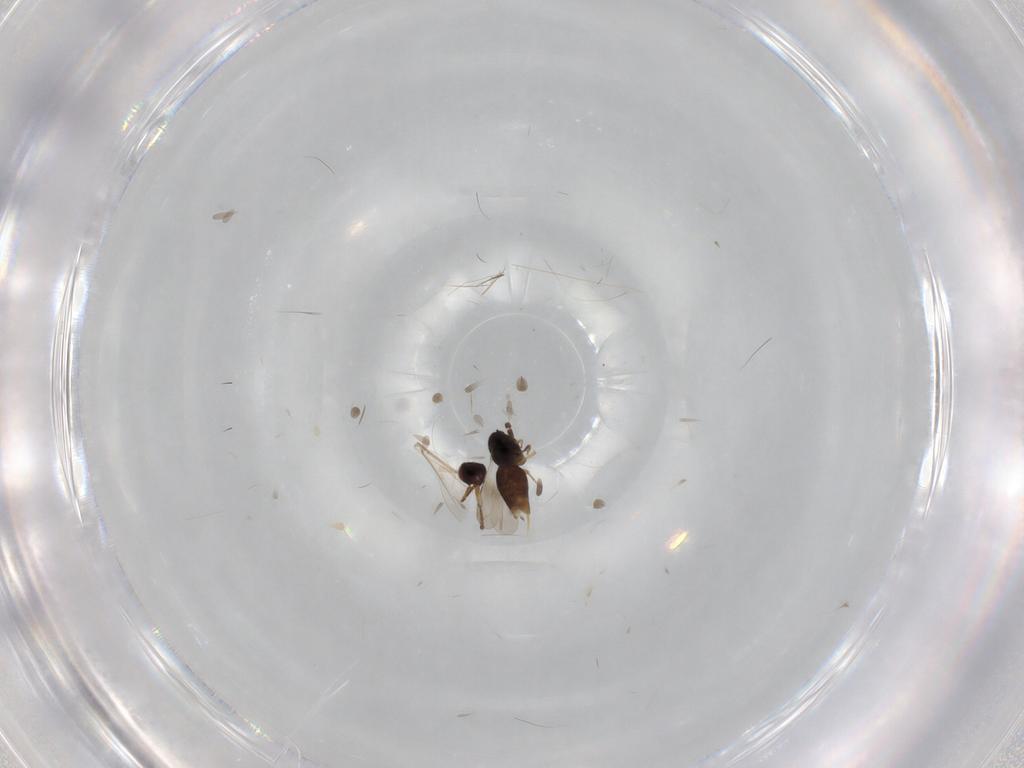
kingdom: Animalia
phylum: Arthropoda
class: Insecta
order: Hymenoptera
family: Ceraphronidae
